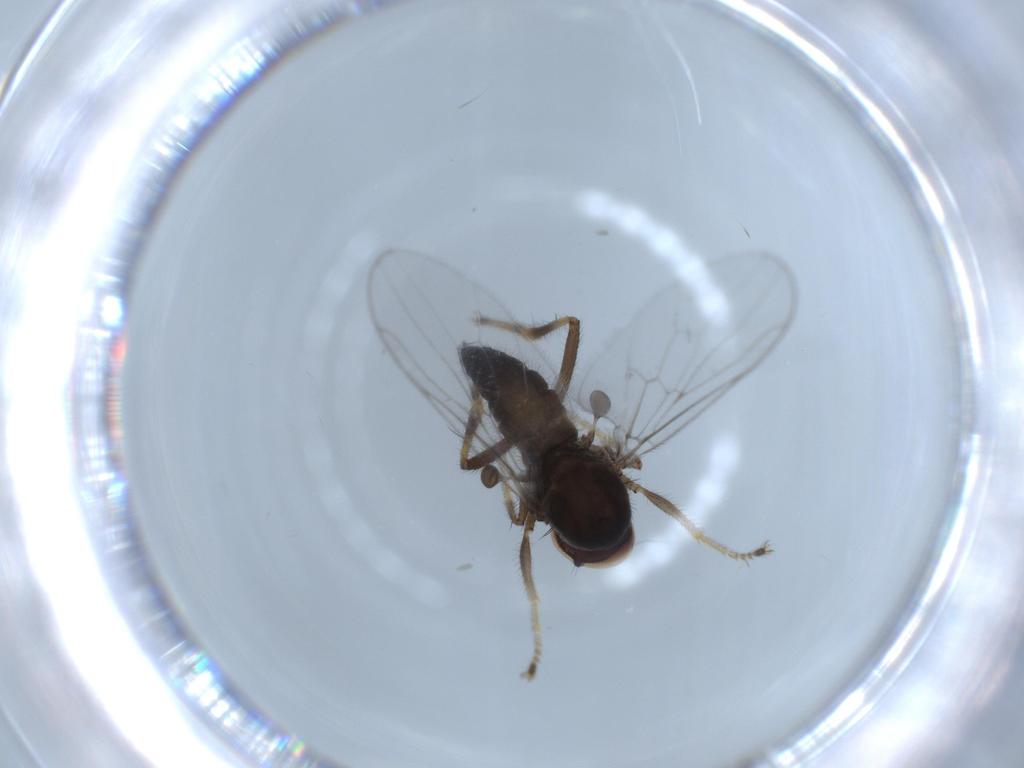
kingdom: Animalia
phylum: Arthropoda
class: Insecta
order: Diptera
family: Hybotidae
